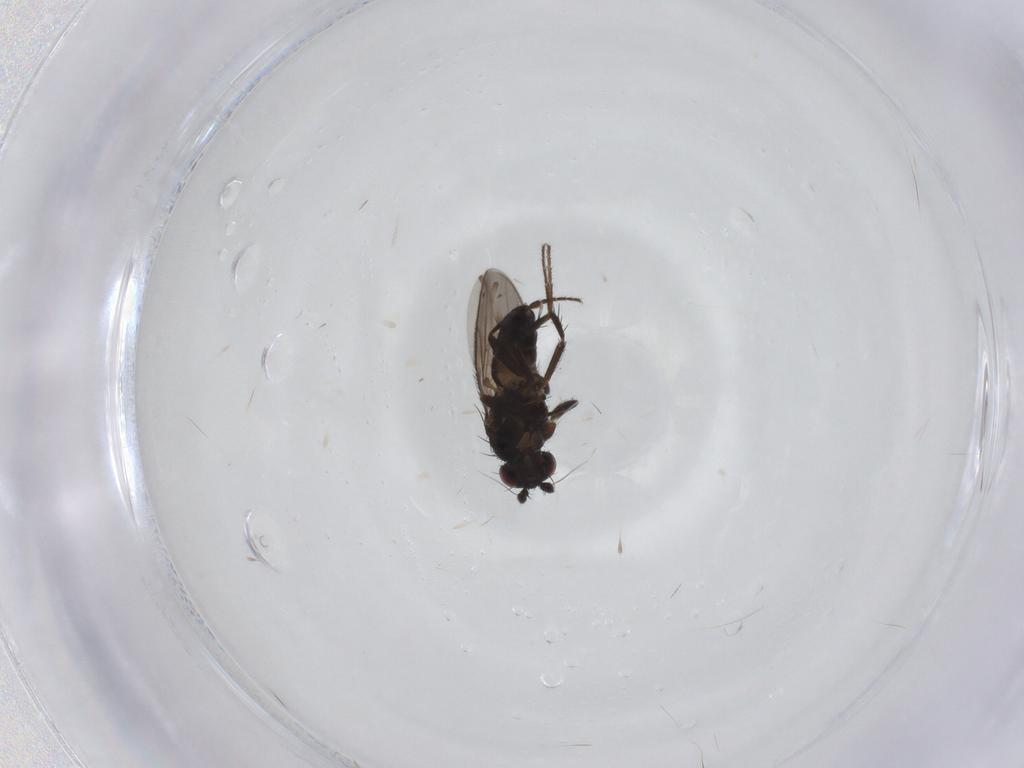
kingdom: Animalia
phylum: Arthropoda
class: Insecta
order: Diptera
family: Sphaeroceridae
